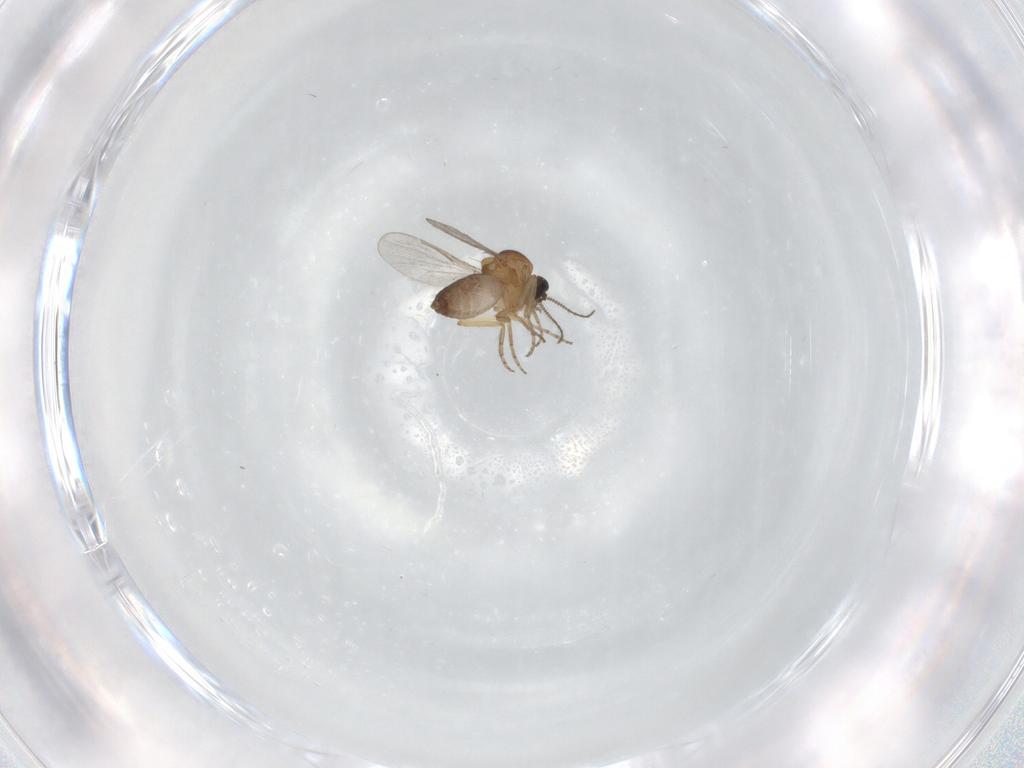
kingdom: Animalia
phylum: Arthropoda
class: Insecta
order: Diptera
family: Ceratopogonidae
